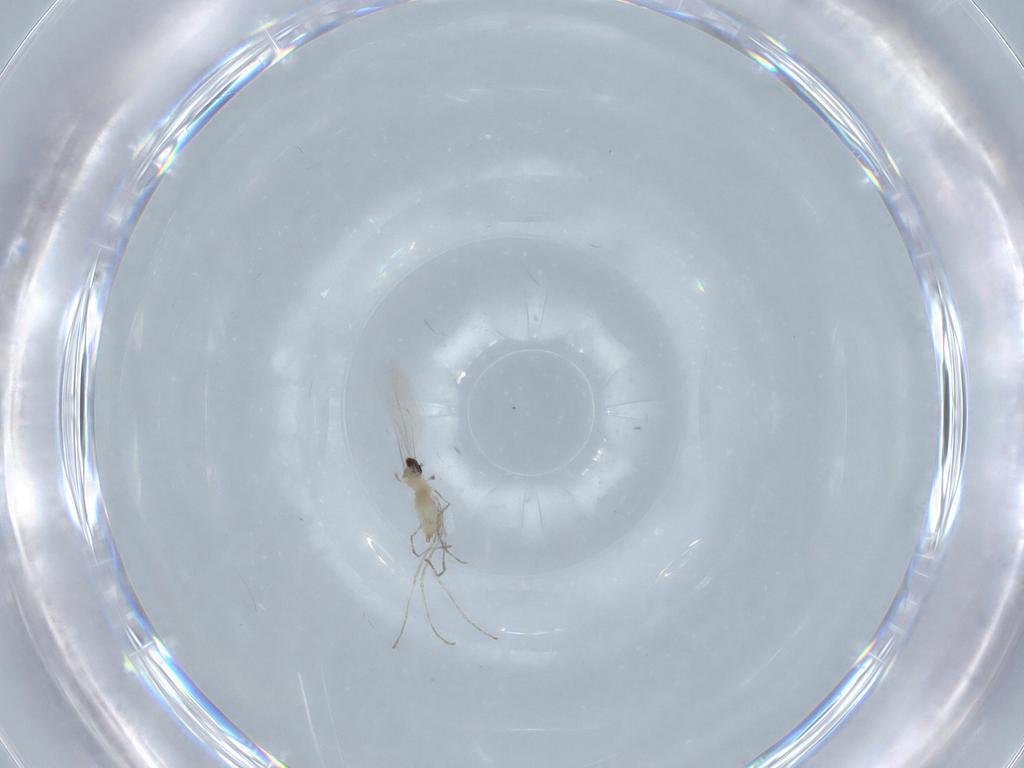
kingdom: Animalia
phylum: Arthropoda
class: Insecta
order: Diptera
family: Cecidomyiidae
